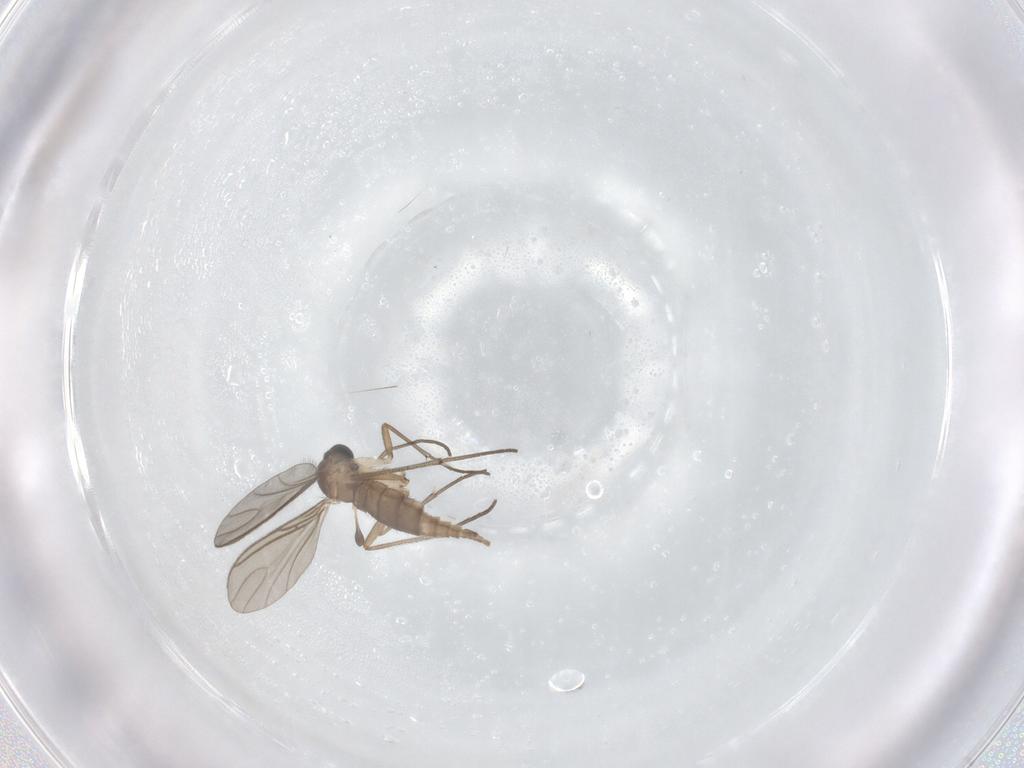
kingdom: Animalia
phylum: Arthropoda
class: Insecta
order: Diptera
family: Sciaridae
